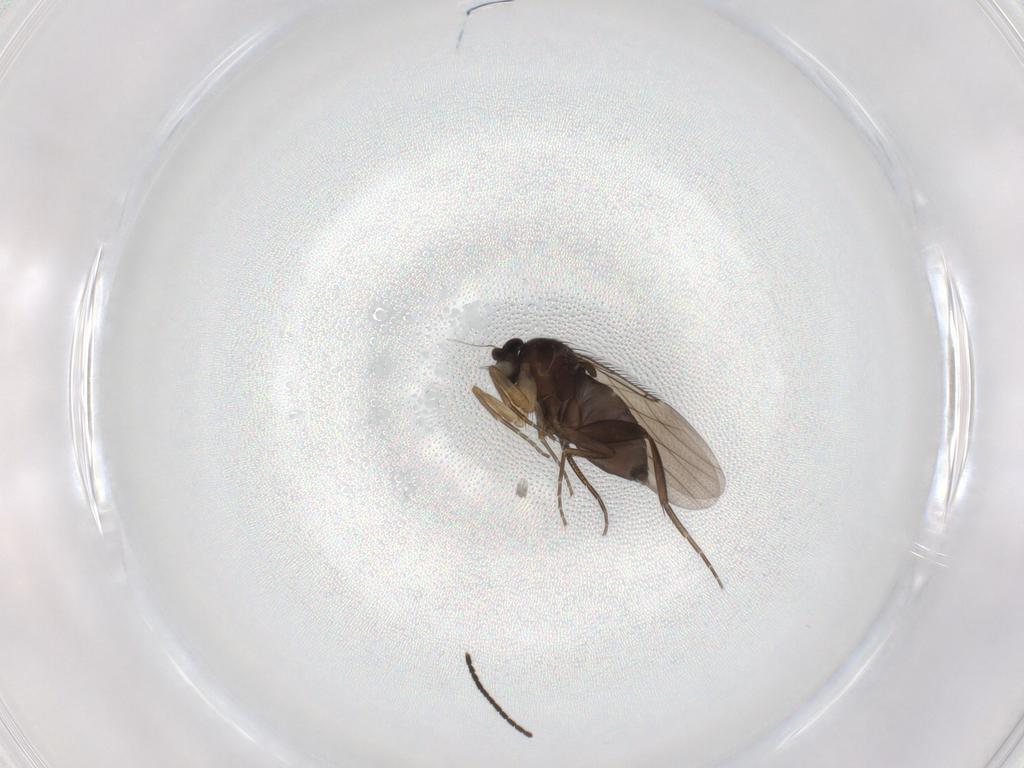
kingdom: Animalia
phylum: Arthropoda
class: Insecta
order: Diptera
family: Phoridae
